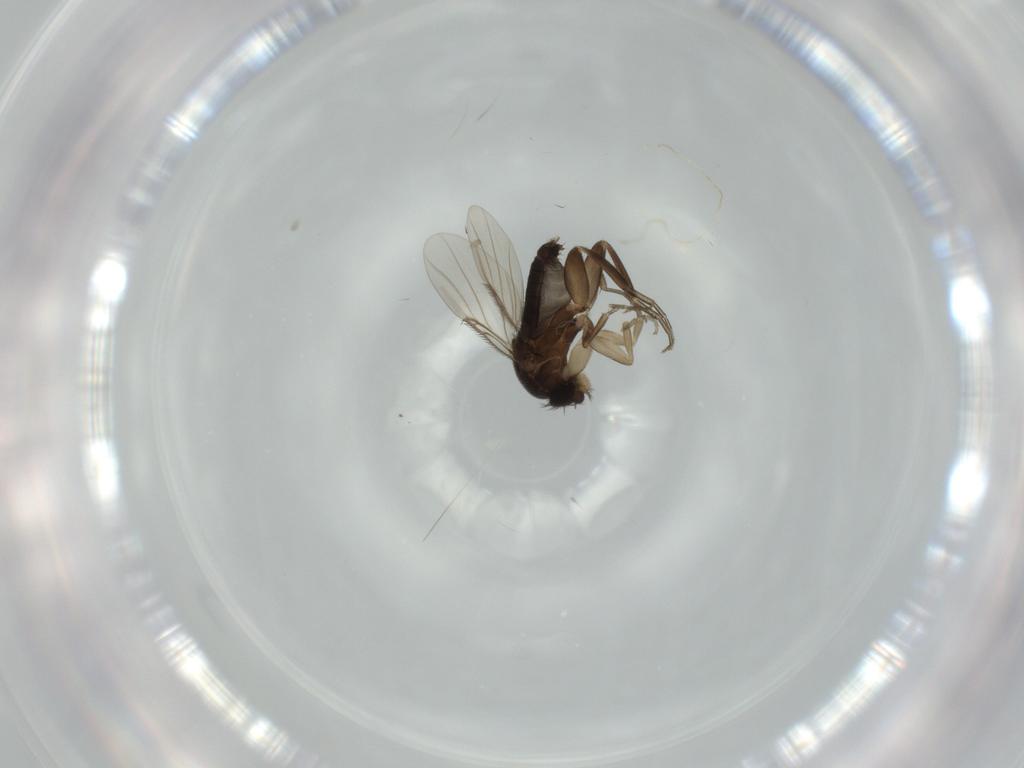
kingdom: Animalia
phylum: Arthropoda
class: Insecta
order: Diptera
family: Phoridae
